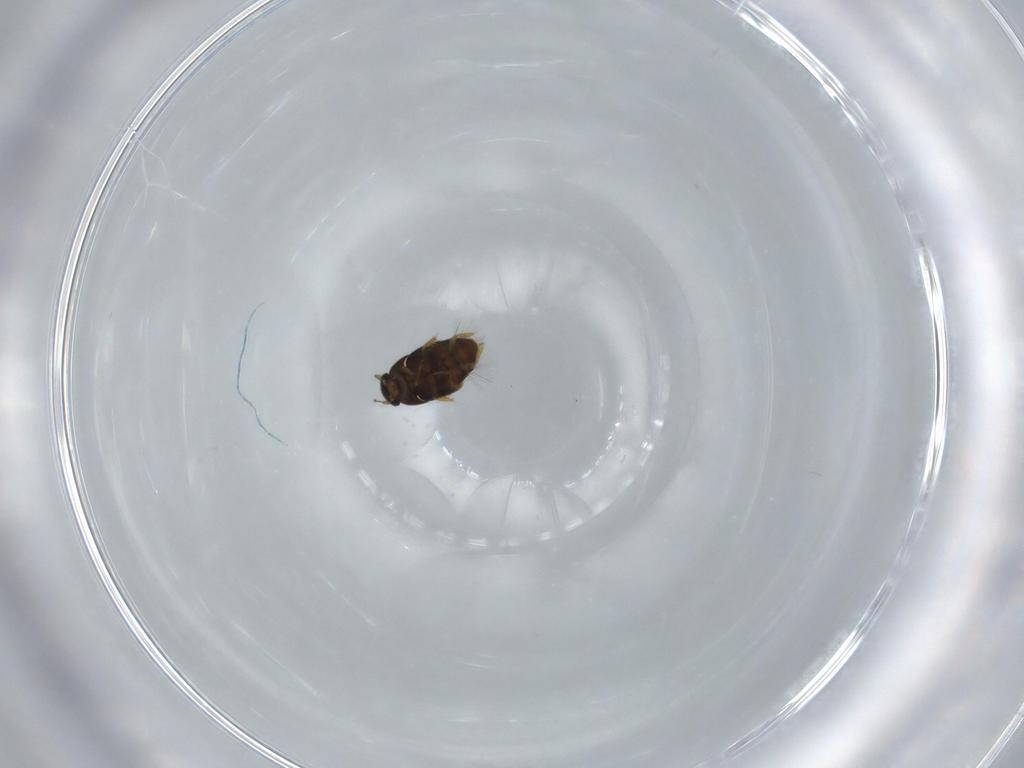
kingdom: Animalia
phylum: Arthropoda
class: Insecta
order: Coleoptera
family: Ptiliidae
